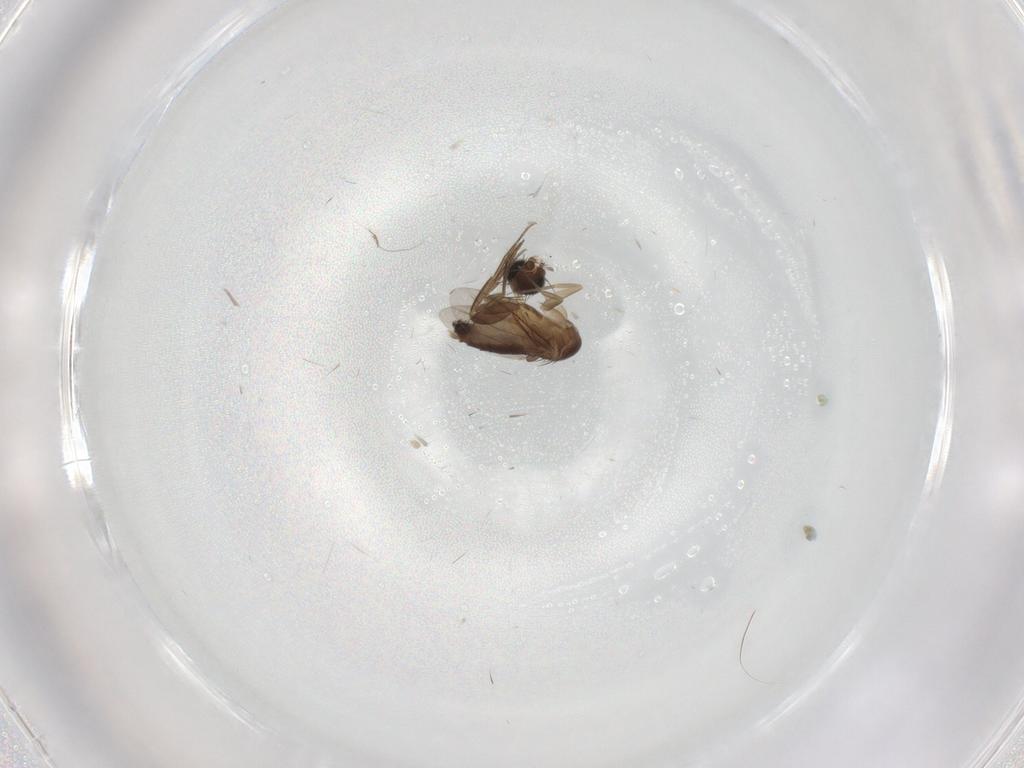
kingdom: Animalia
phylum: Arthropoda
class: Insecta
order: Diptera
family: Phoridae
